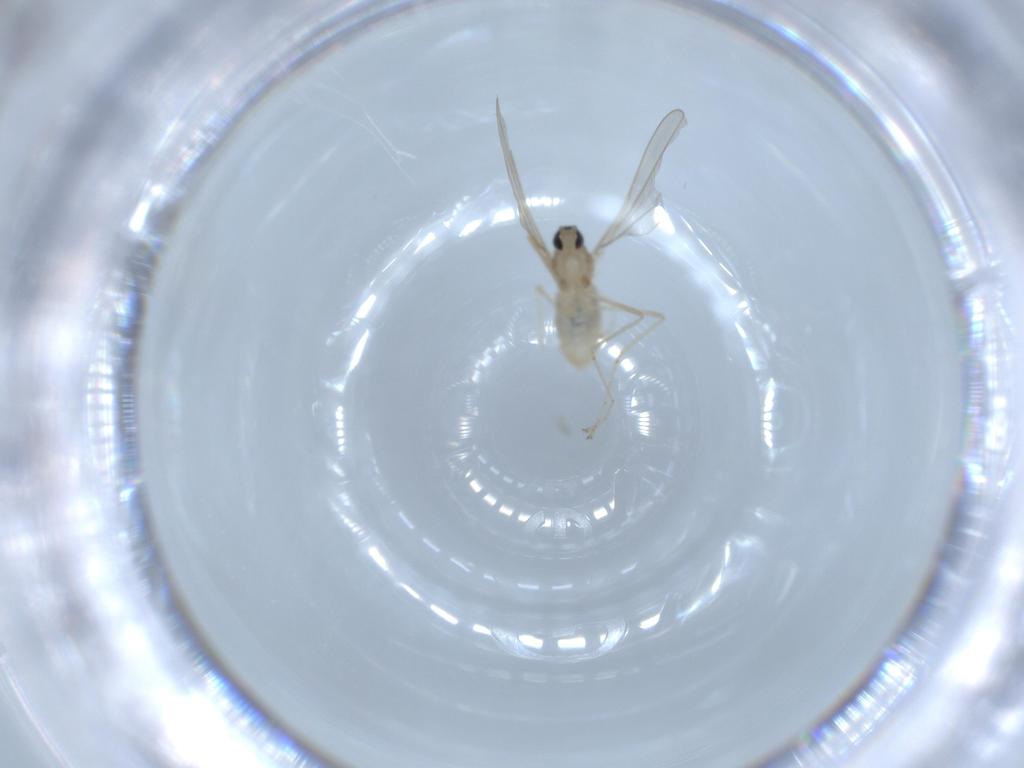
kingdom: Animalia
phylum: Arthropoda
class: Insecta
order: Diptera
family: Cecidomyiidae
